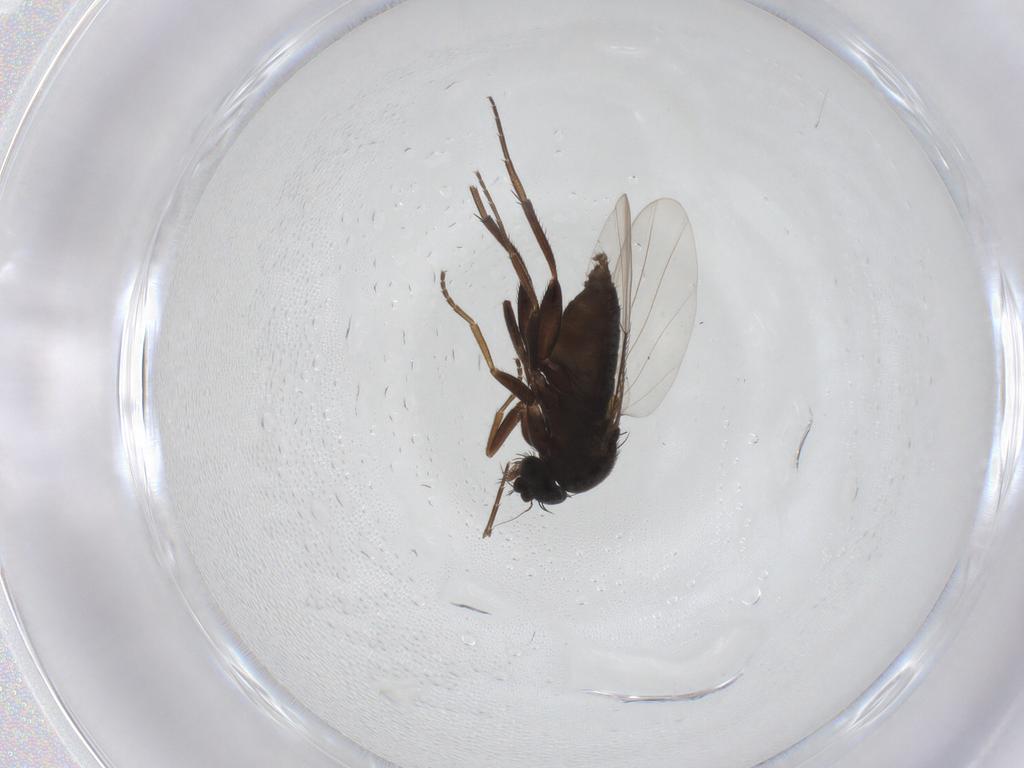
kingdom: Animalia
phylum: Arthropoda
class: Insecta
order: Diptera
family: Phoridae
